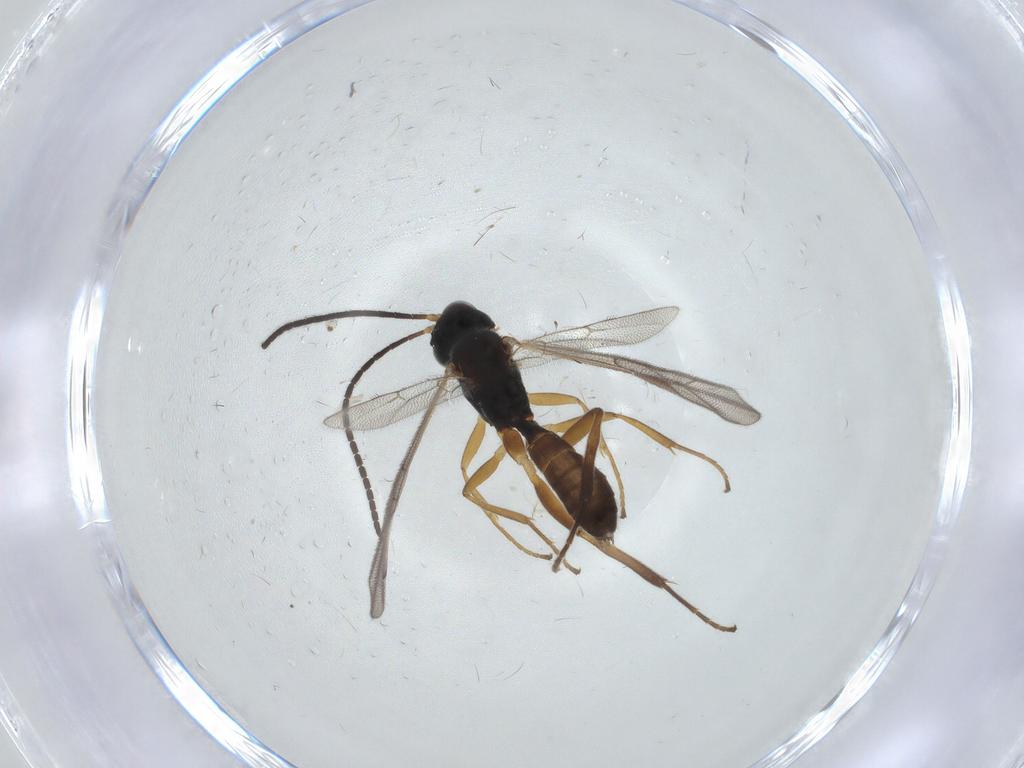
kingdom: Animalia
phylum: Arthropoda
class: Insecta
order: Hymenoptera
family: Ichneumonidae
